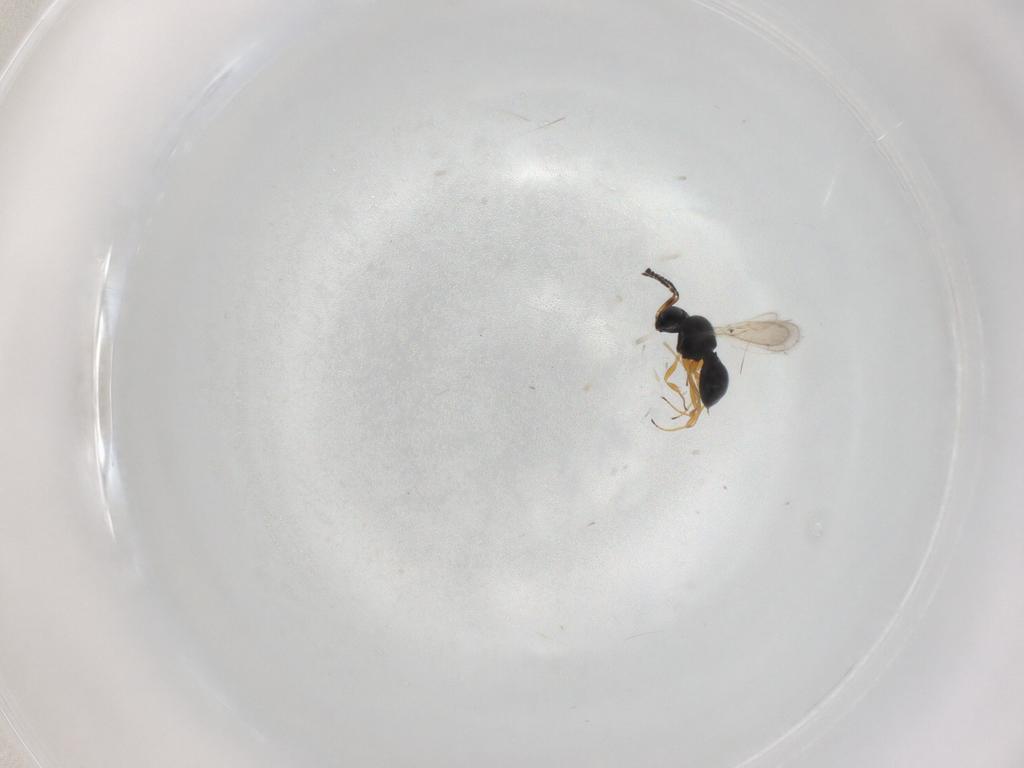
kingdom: Animalia
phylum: Arthropoda
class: Insecta
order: Hymenoptera
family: Scelionidae
